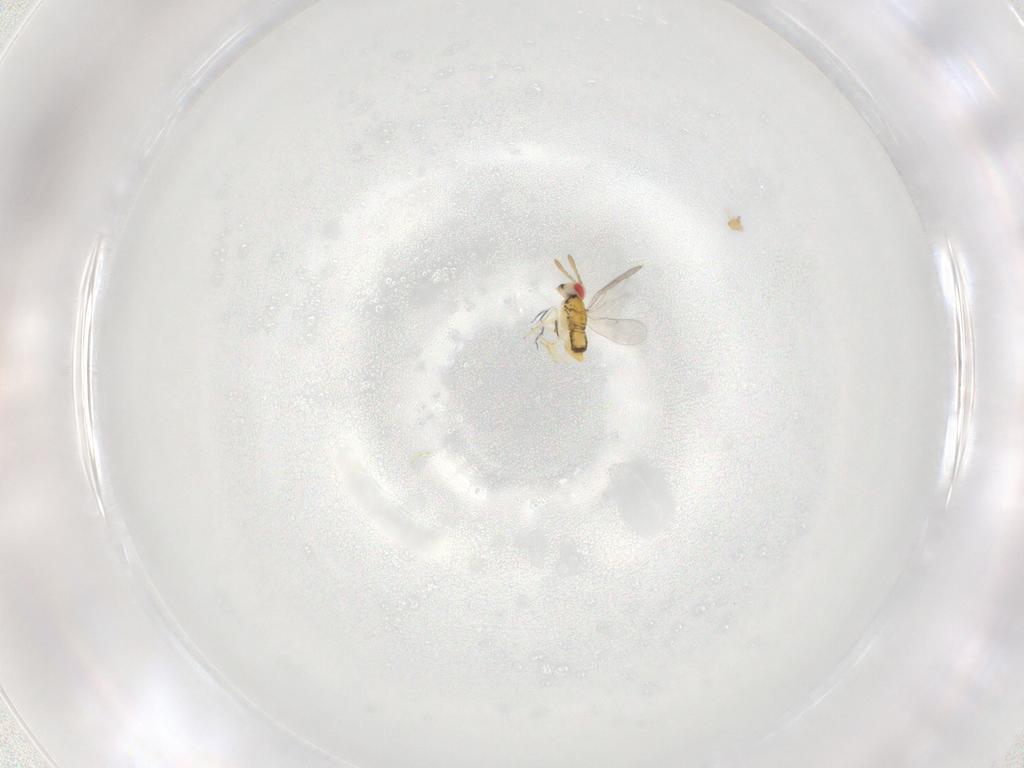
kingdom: Animalia
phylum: Arthropoda
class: Insecta
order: Hymenoptera
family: Aphelinidae
